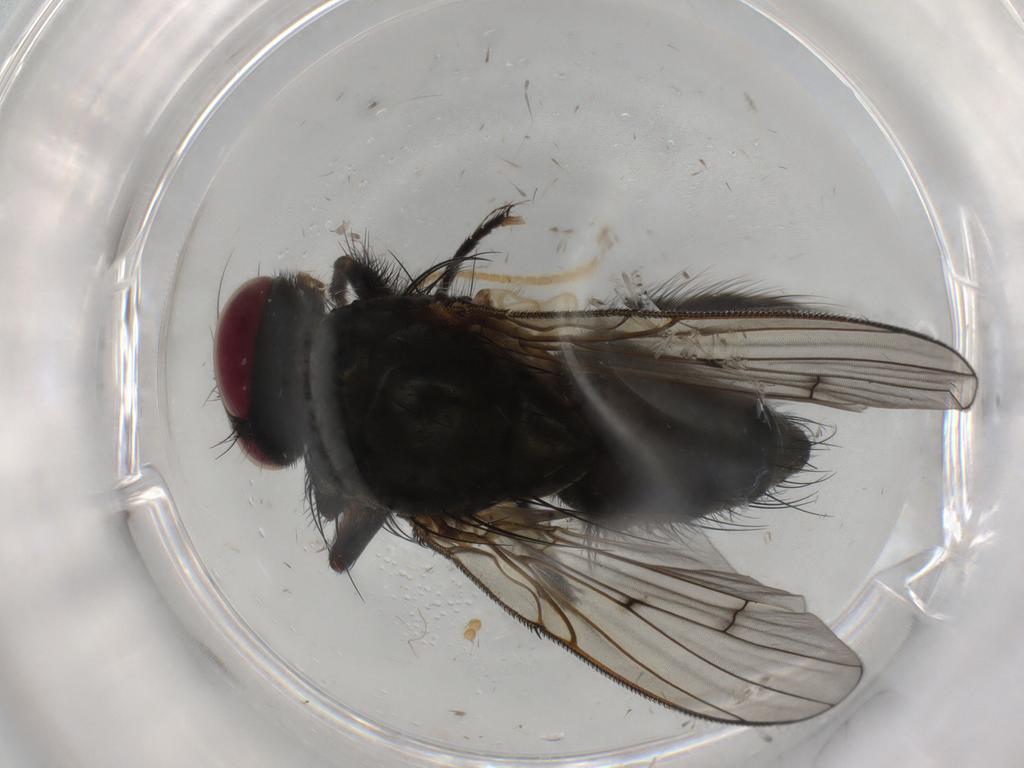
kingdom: Animalia
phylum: Arthropoda
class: Insecta
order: Diptera
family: Muscidae
